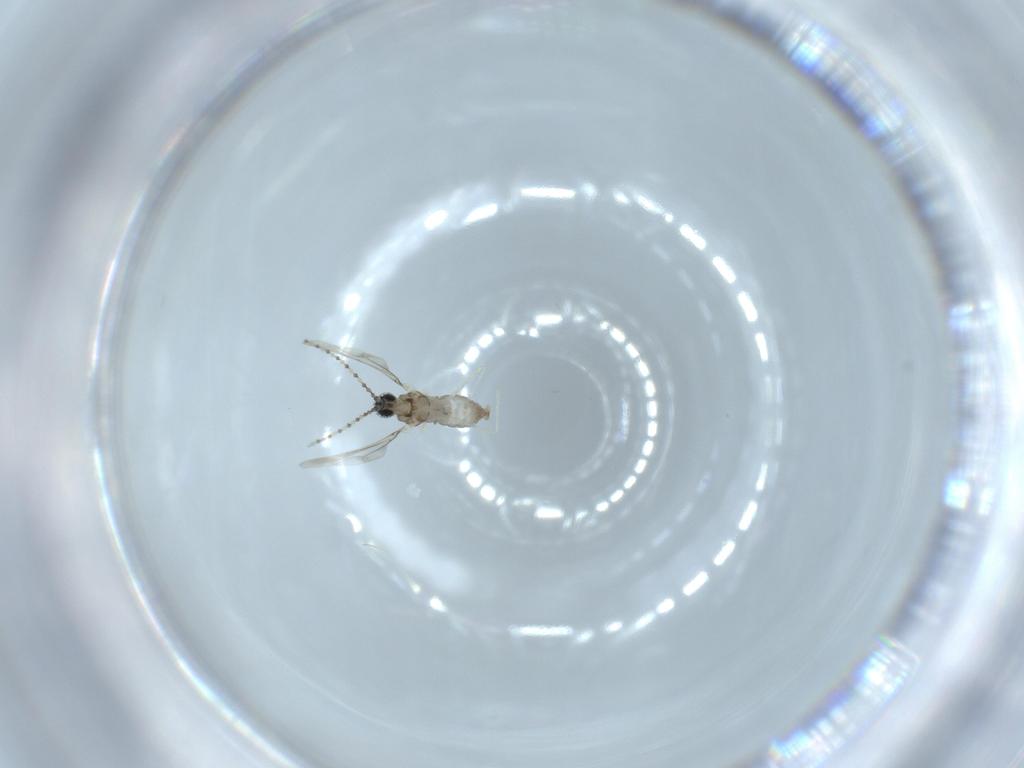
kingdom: Animalia
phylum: Arthropoda
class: Insecta
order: Diptera
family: Cecidomyiidae
